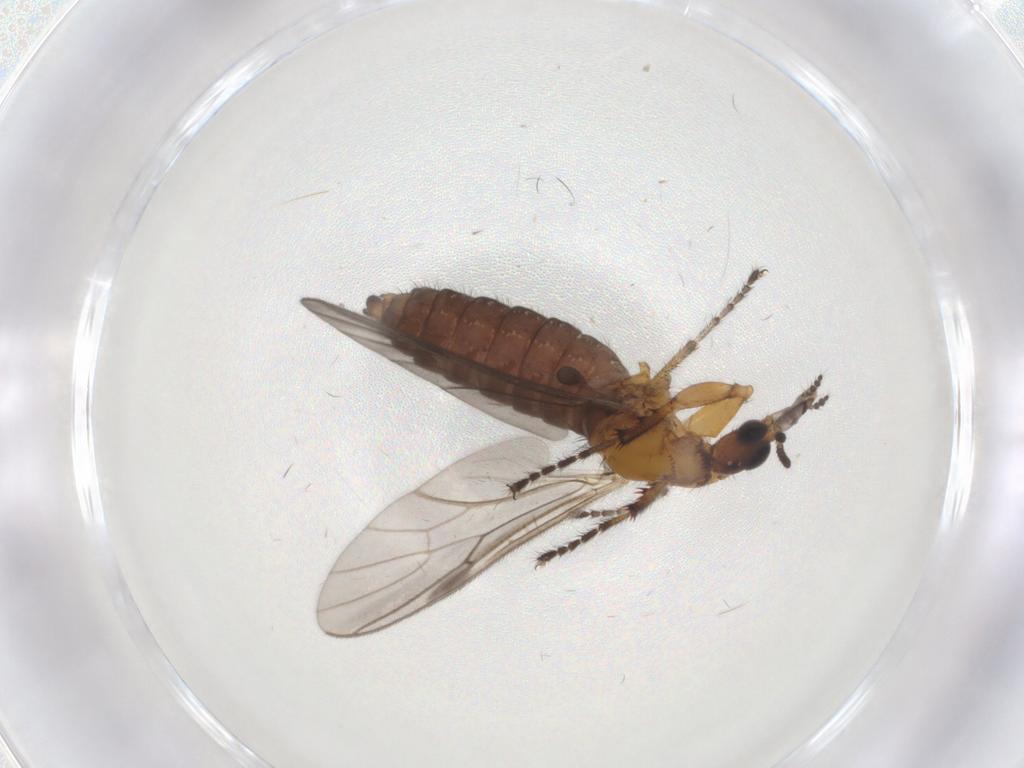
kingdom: Animalia
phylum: Arthropoda
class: Insecta
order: Diptera
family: Bibionidae
